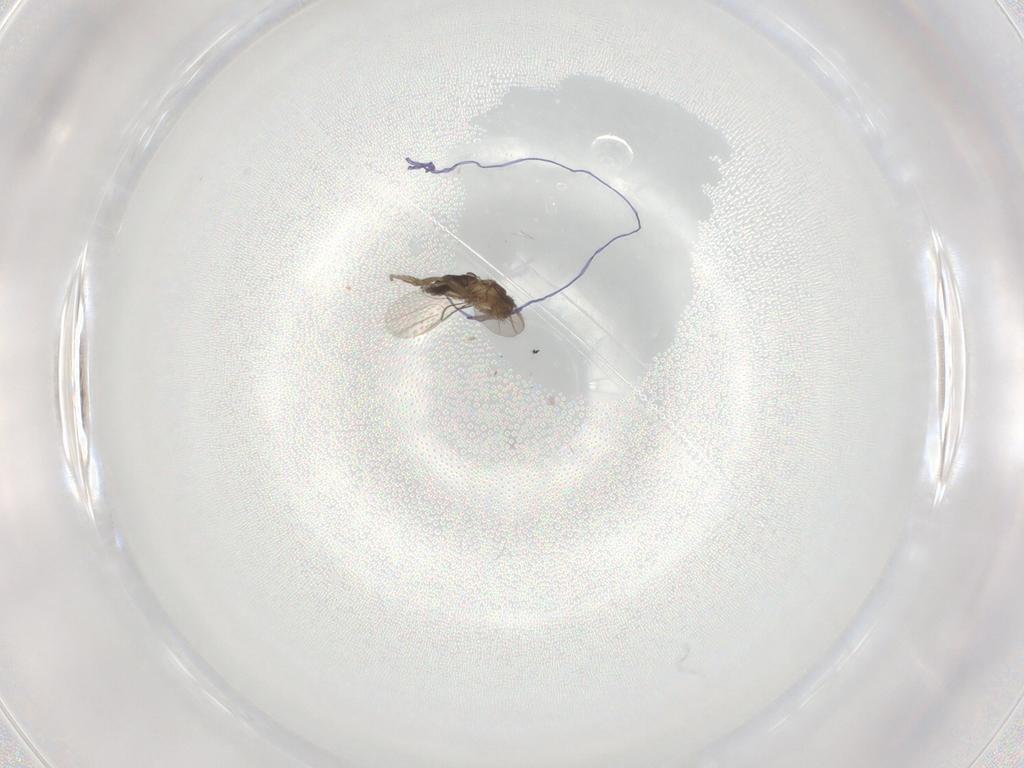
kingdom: Animalia
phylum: Arthropoda
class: Insecta
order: Diptera
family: Phoridae
